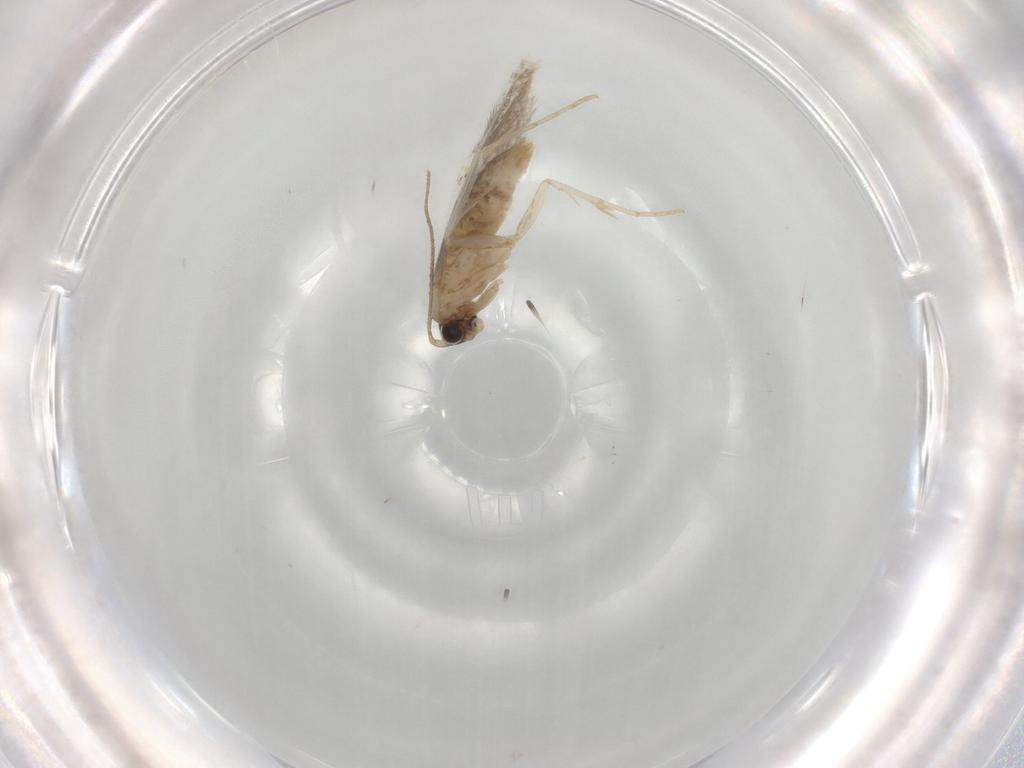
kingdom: Animalia
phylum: Arthropoda
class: Insecta
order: Lepidoptera
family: Tineidae
